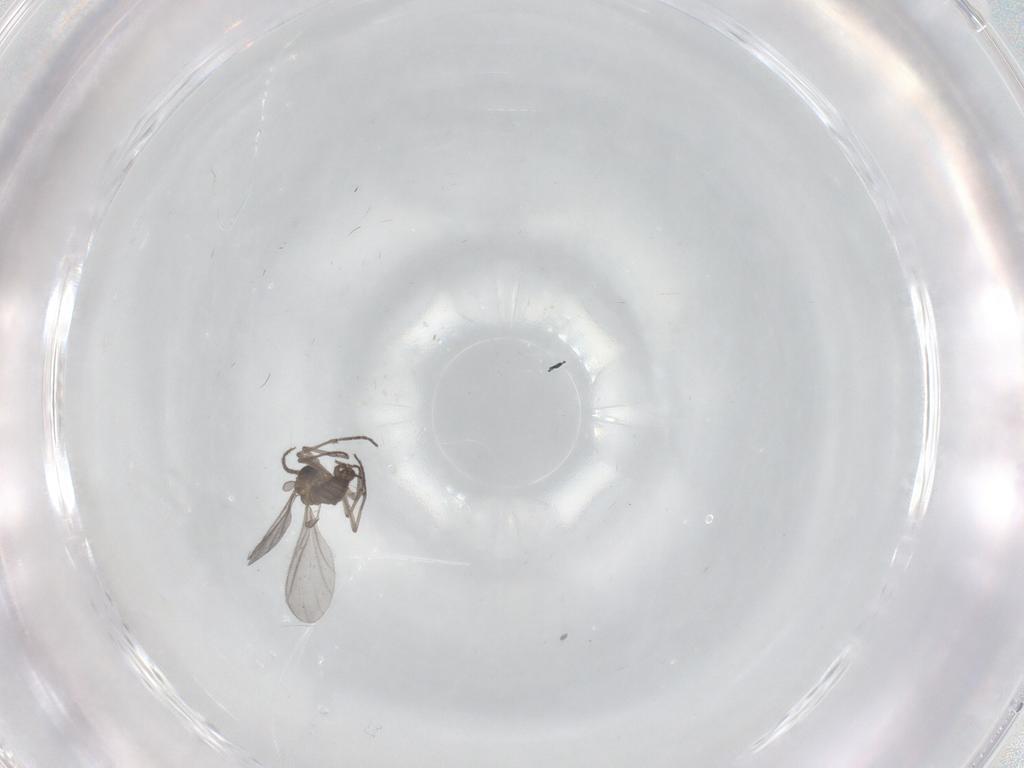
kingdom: Animalia
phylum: Arthropoda
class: Insecta
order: Diptera
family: Sciaridae
